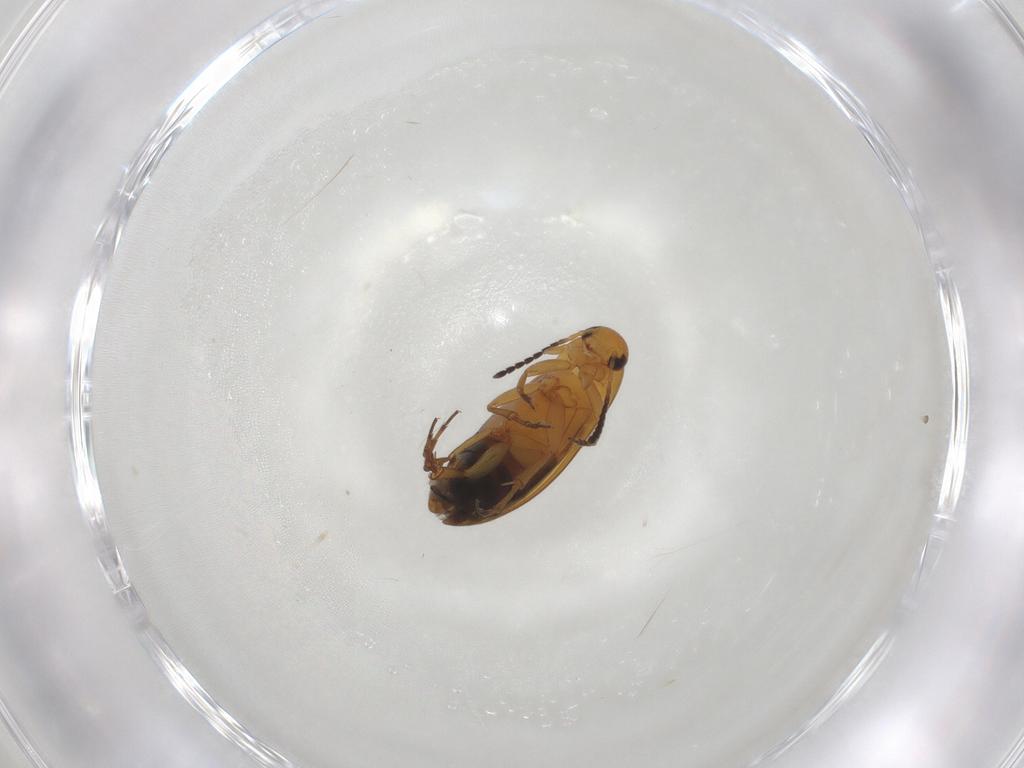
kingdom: Animalia
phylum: Arthropoda
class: Insecta
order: Coleoptera
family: Scraptiidae
